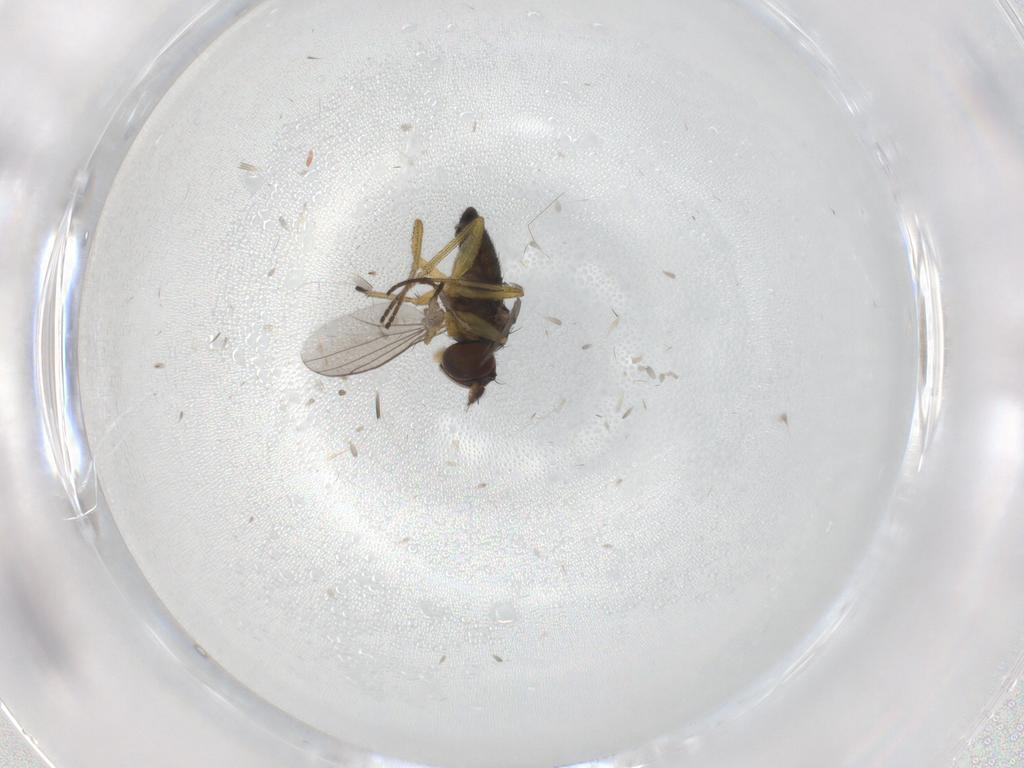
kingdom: Animalia
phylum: Arthropoda
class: Insecta
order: Diptera
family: Dolichopodidae
